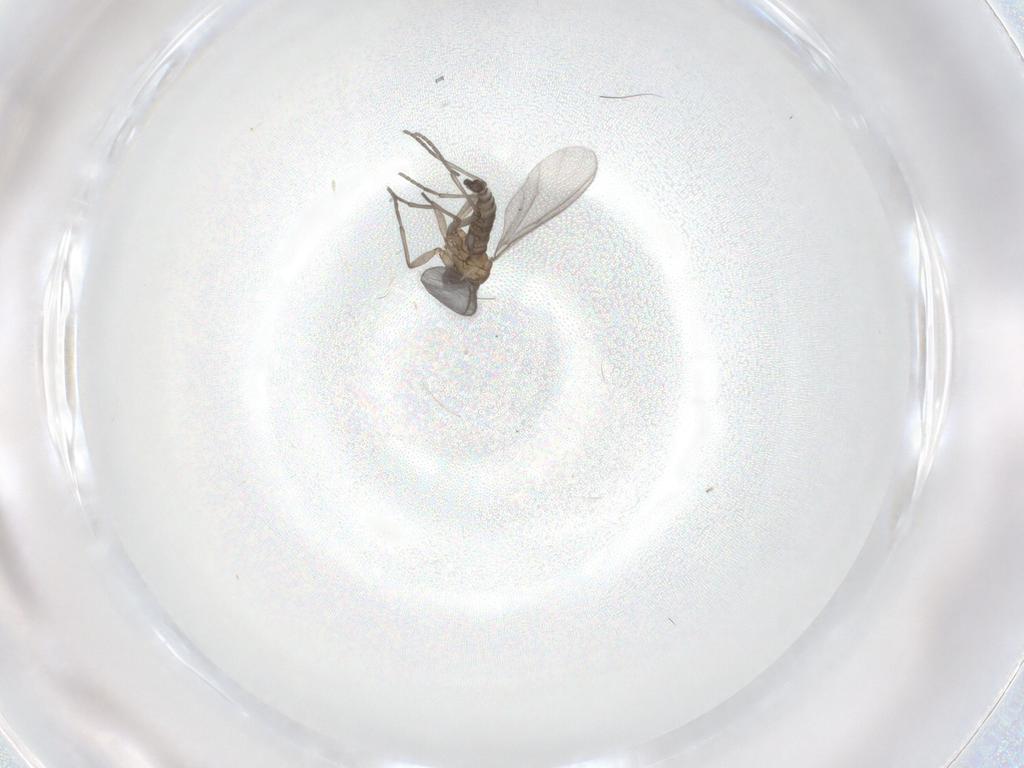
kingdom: Animalia
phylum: Arthropoda
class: Insecta
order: Diptera
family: Sciaridae
